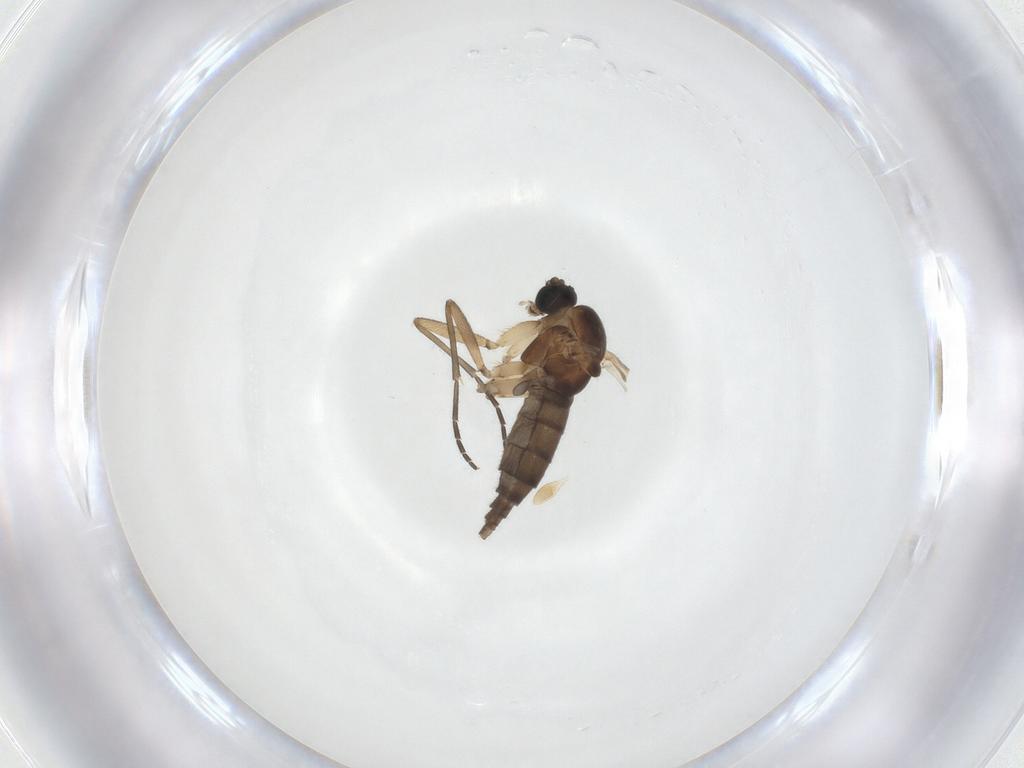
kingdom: Animalia
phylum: Arthropoda
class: Insecta
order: Diptera
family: Sciaridae
